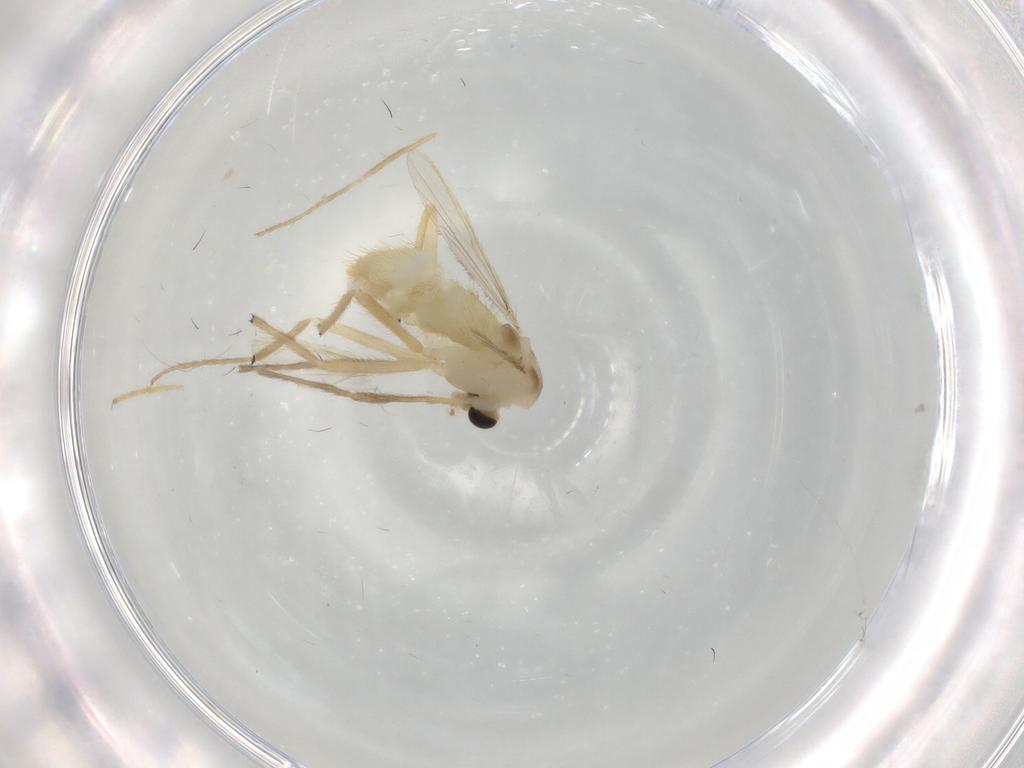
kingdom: Animalia
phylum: Arthropoda
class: Insecta
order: Diptera
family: Chironomidae
